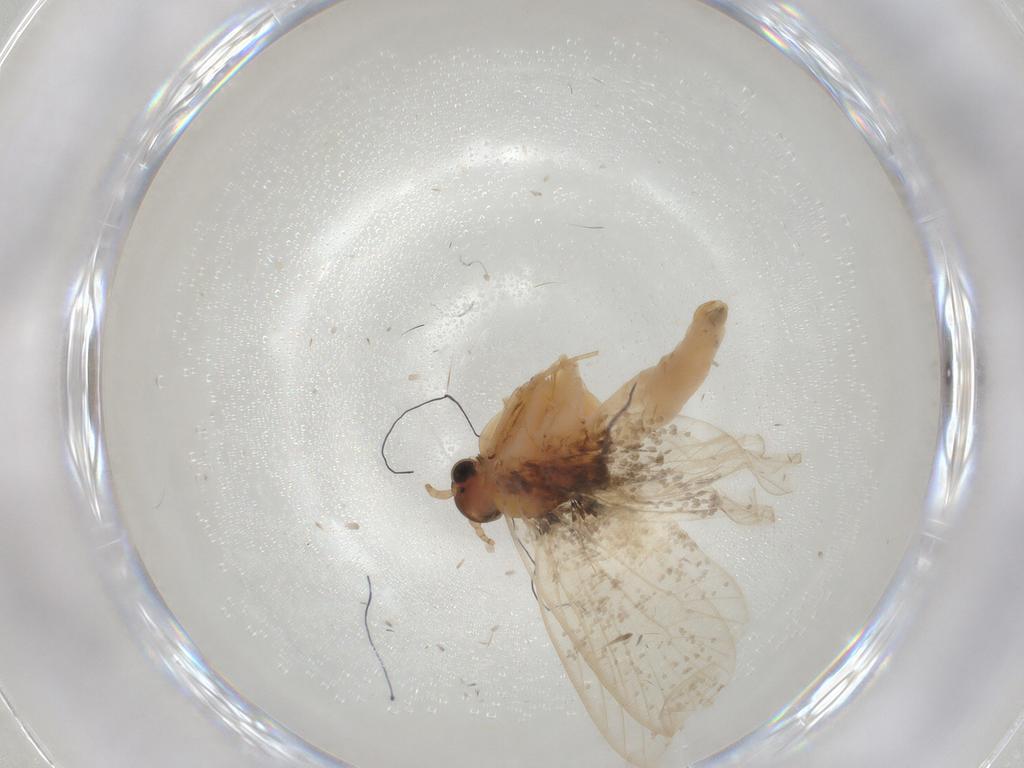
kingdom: Animalia
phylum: Arthropoda
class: Insecta
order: Lepidoptera
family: Psychidae
